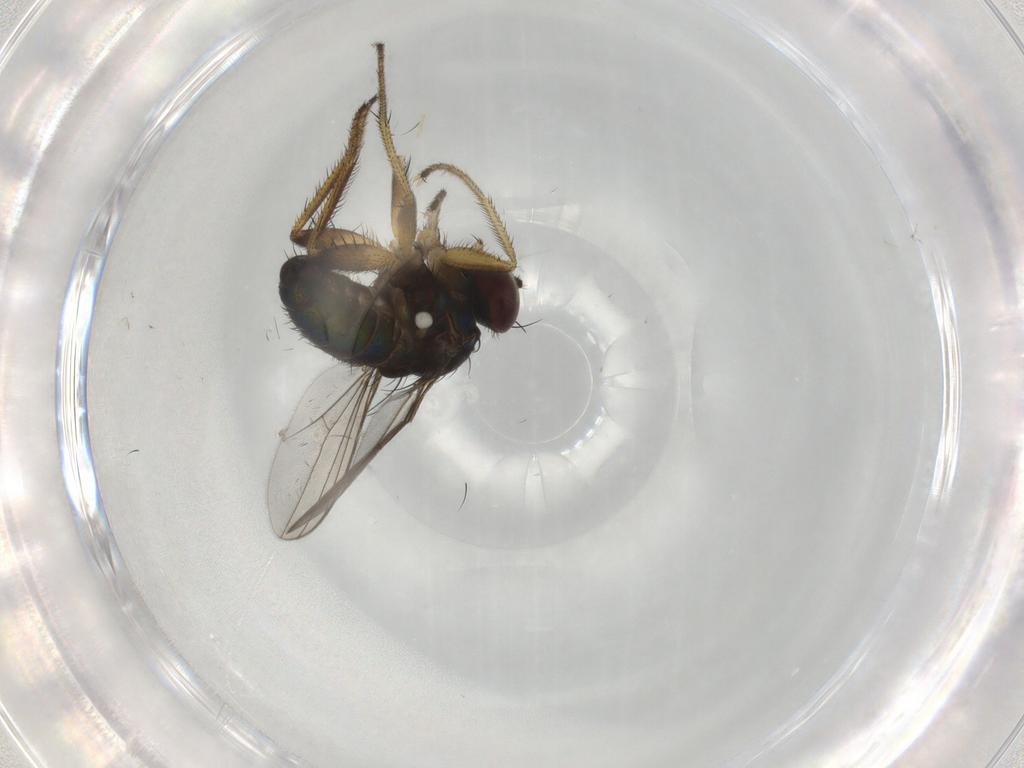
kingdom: Animalia
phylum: Arthropoda
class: Insecta
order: Diptera
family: Dolichopodidae
